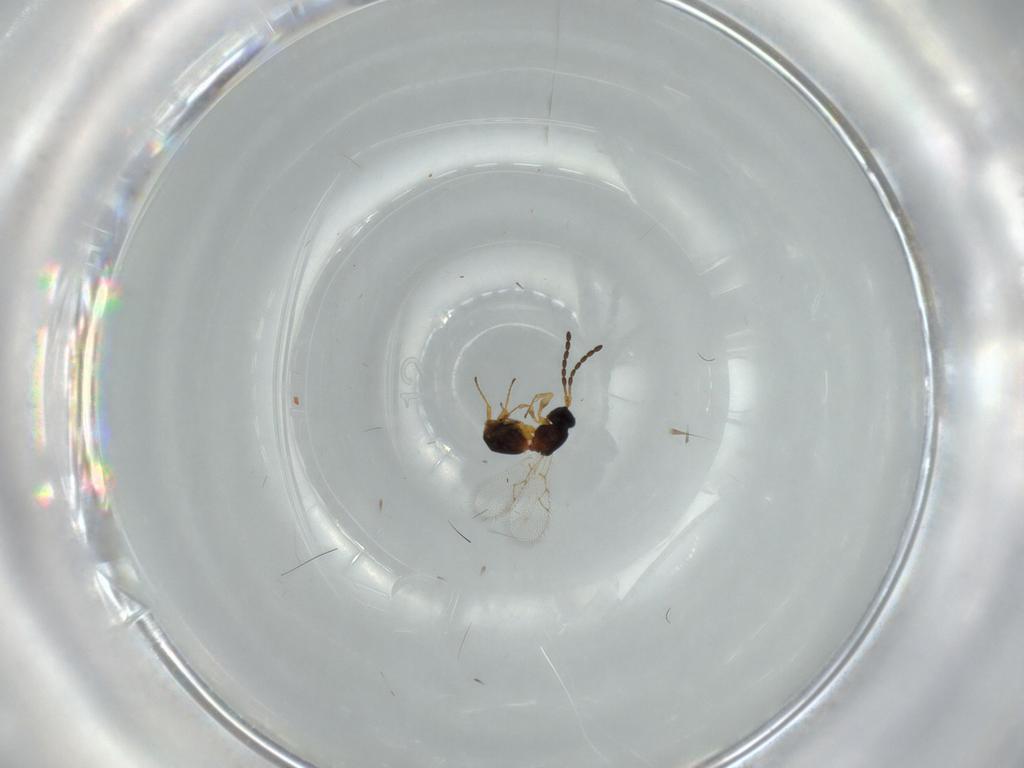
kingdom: Animalia
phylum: Arthropoda
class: Insecta
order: Hymenoptera
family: Figitidae
